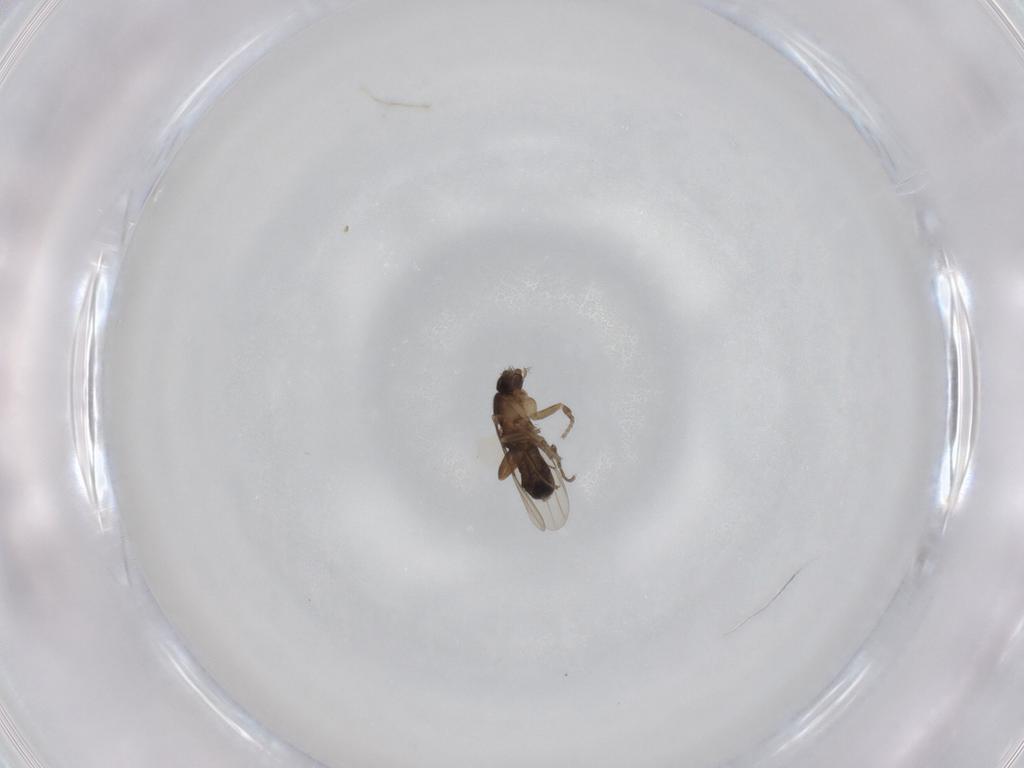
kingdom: Animalia
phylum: Arthropoda
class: Insecta
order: Diptera
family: Phoridae
